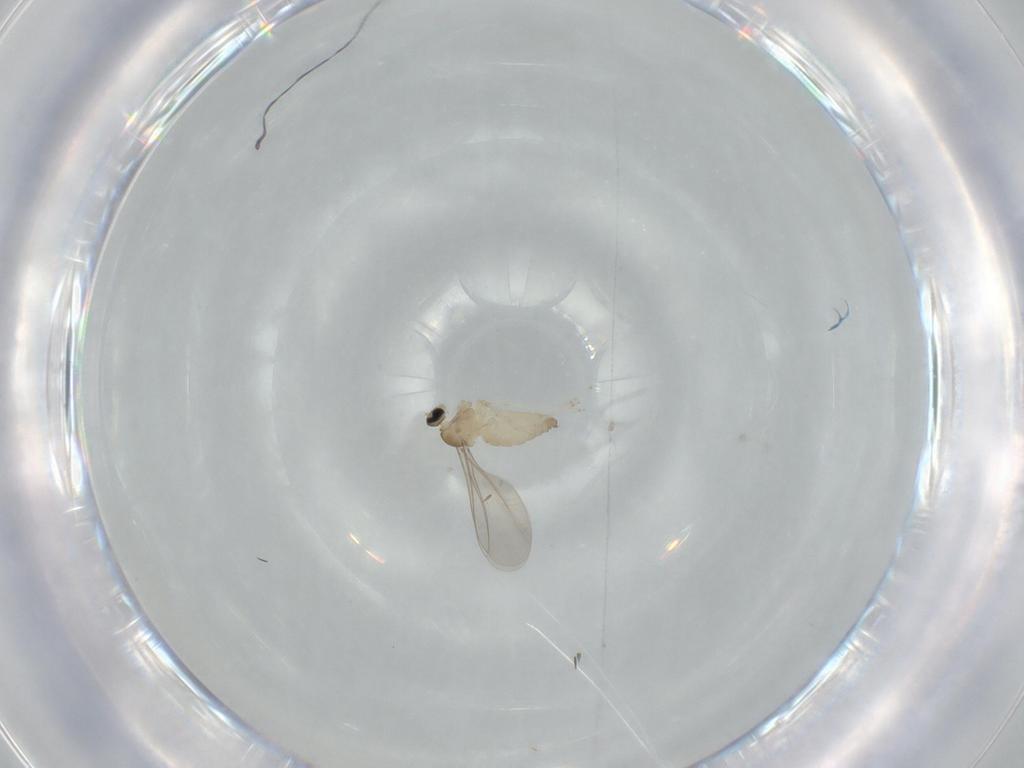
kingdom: Animalia
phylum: Arthropoda
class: Insecta
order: Diptera
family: Cecidomyiidae
